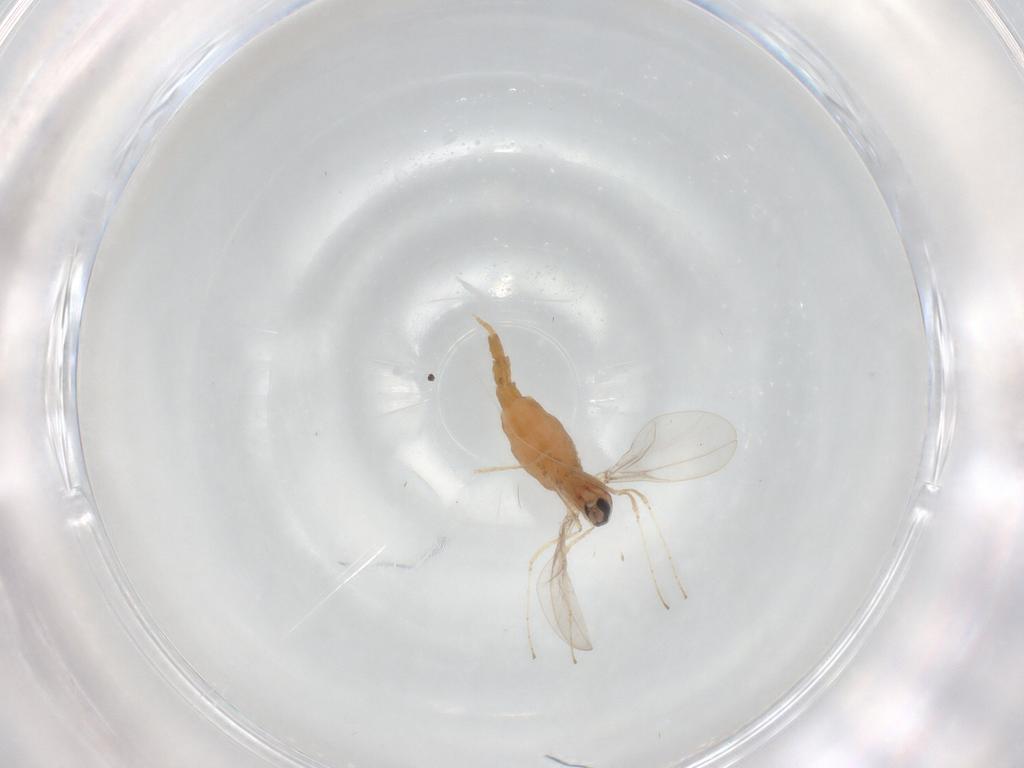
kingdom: Animalia
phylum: Arthropoda
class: Insecta
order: Diptera
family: Cecidomyiidae
